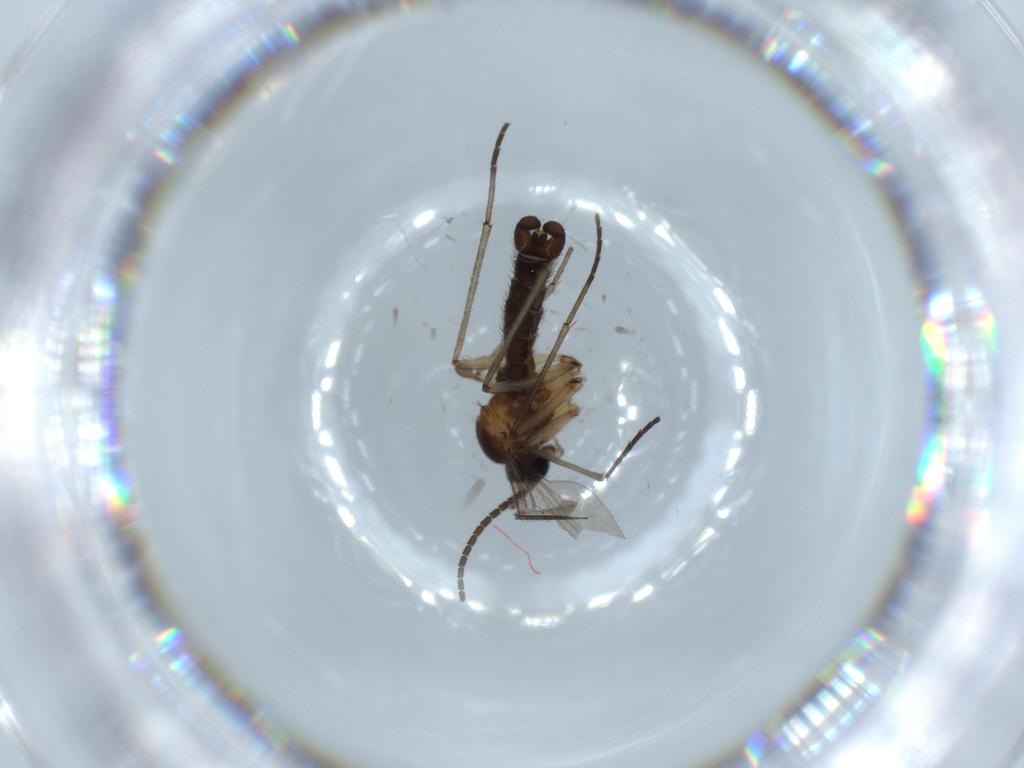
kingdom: Animalia
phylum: Arthropoda
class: Insecta
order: Diptera
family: Sciaridae
